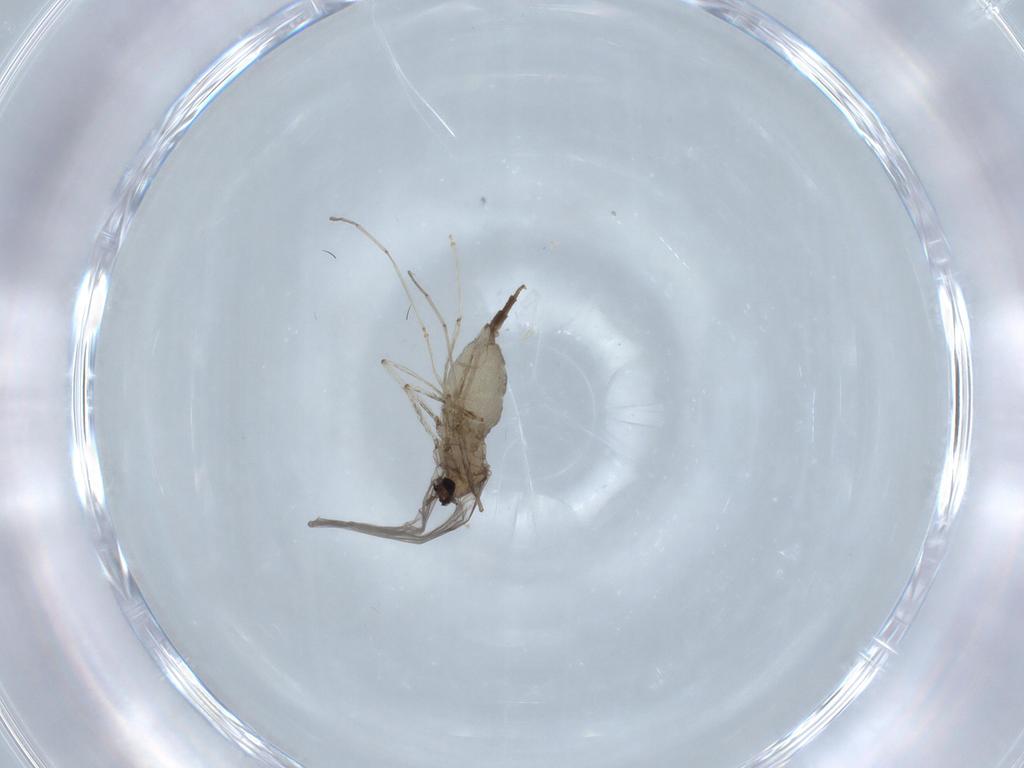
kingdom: Animalia
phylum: Arthropoda
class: Insecta
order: Diptera
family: Cecidomyiidae
